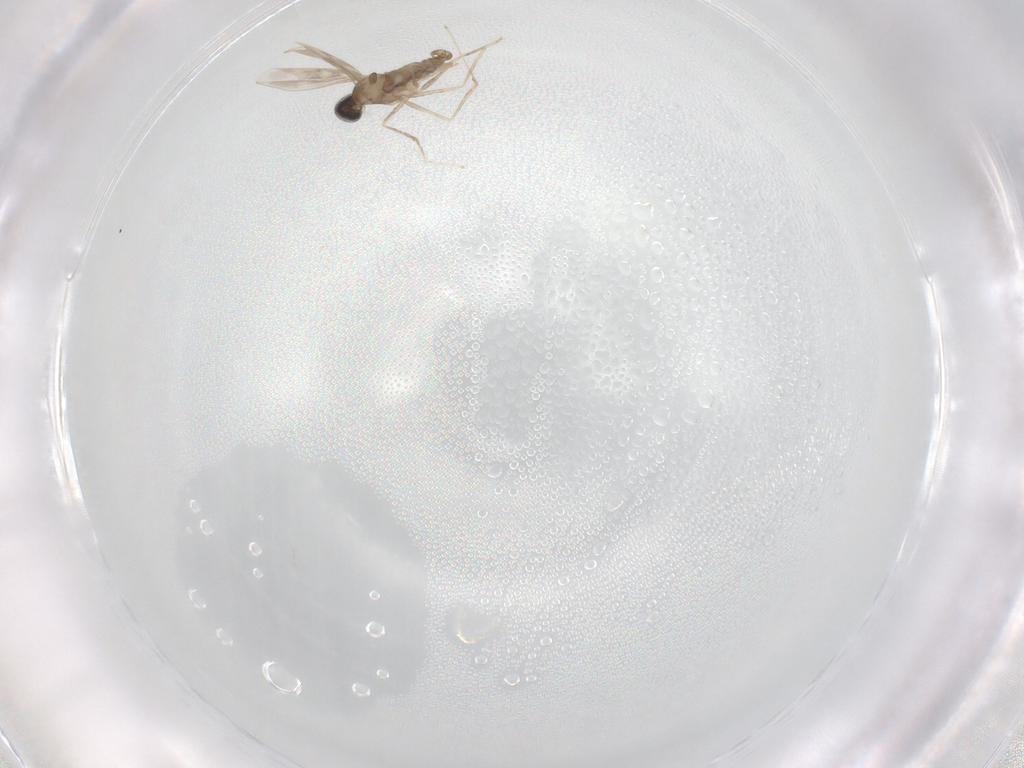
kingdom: Animalia
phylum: Arthropoda
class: Insecta
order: Diptera
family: Cecidomyiidae
